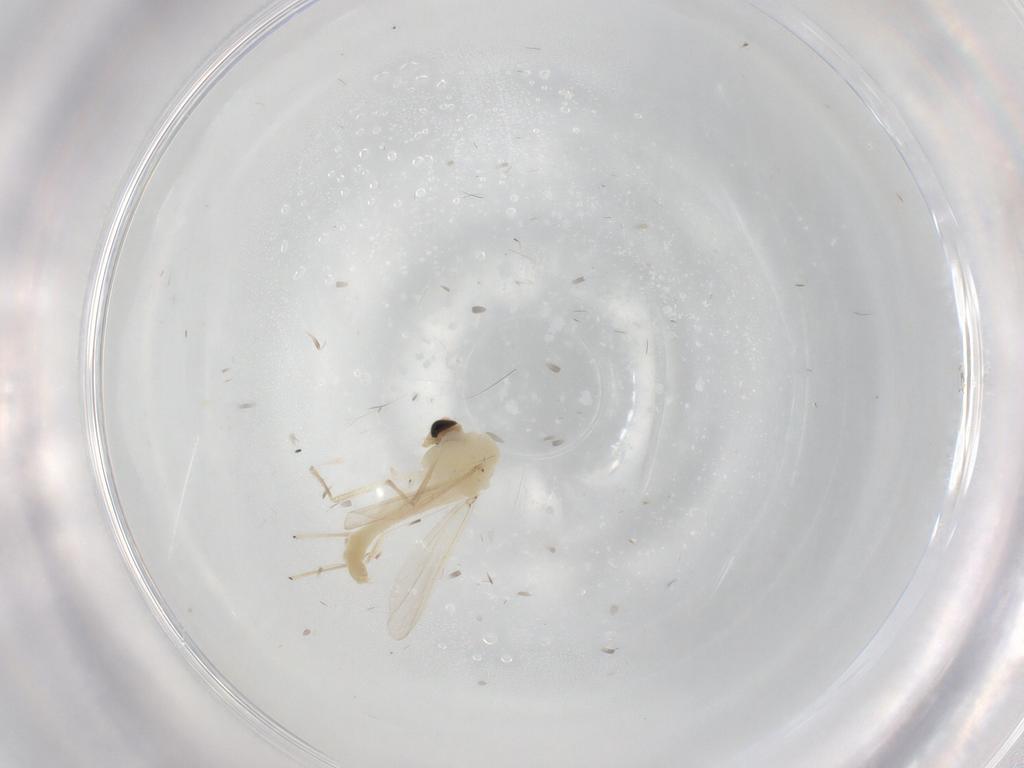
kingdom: Animalia
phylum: Arthropoda
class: Insecta
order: Diptera
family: Chironomidae
